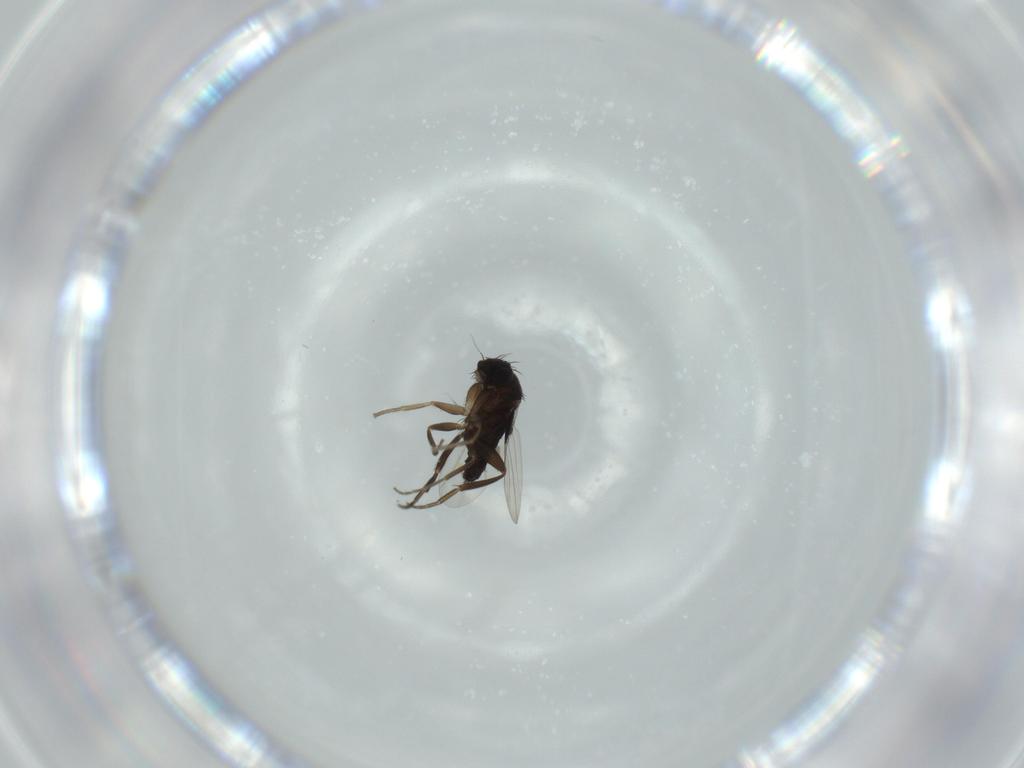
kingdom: Animalia
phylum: Arthropoda
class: Insecta
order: Diptera
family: Phoridae
